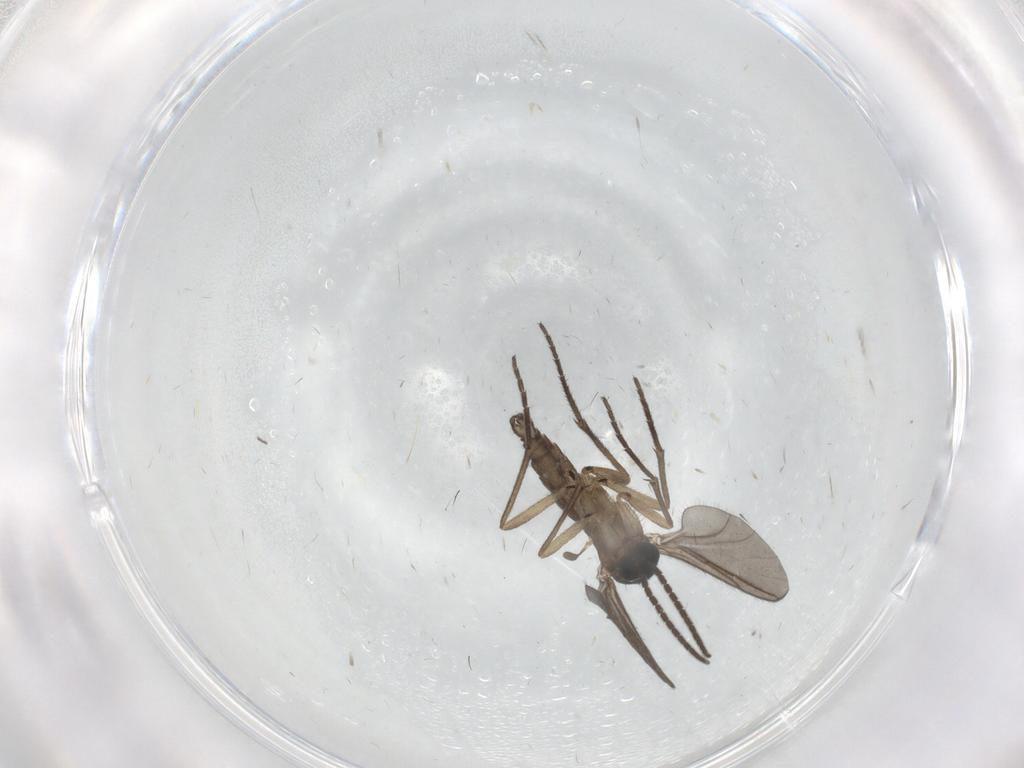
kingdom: Animalia
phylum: Arthropoda
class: Insecta
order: Diptera
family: Sciaridae
